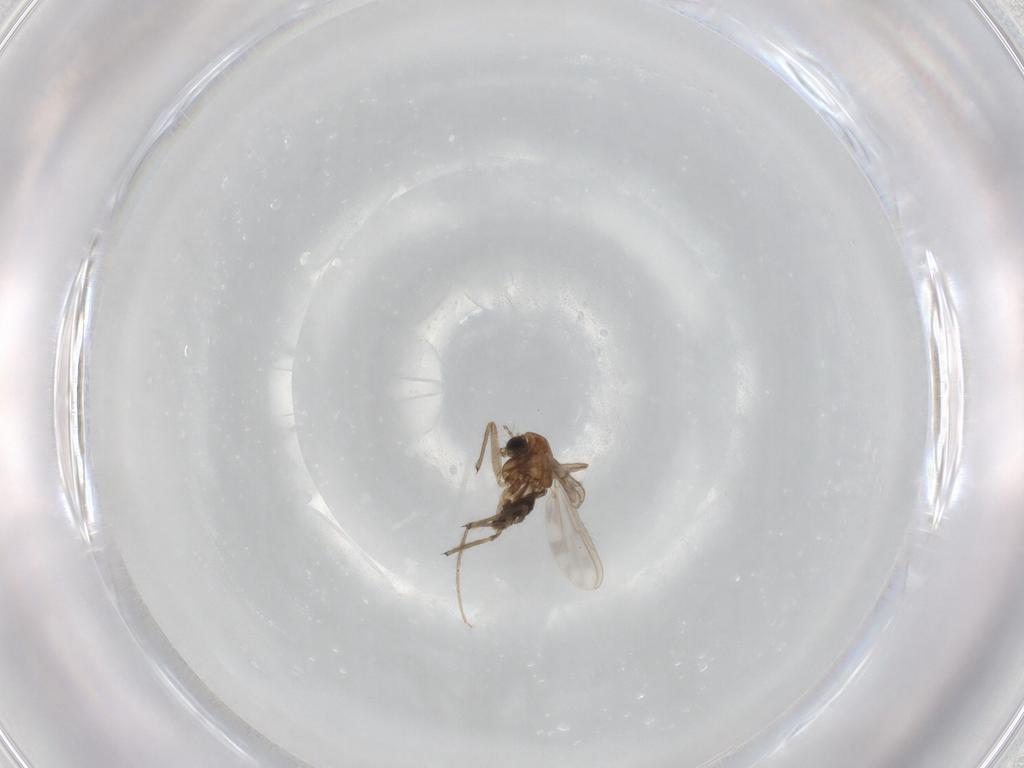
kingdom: Animalia
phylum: Arthropoda
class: Insecta
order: Diptera
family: Chironomidae
